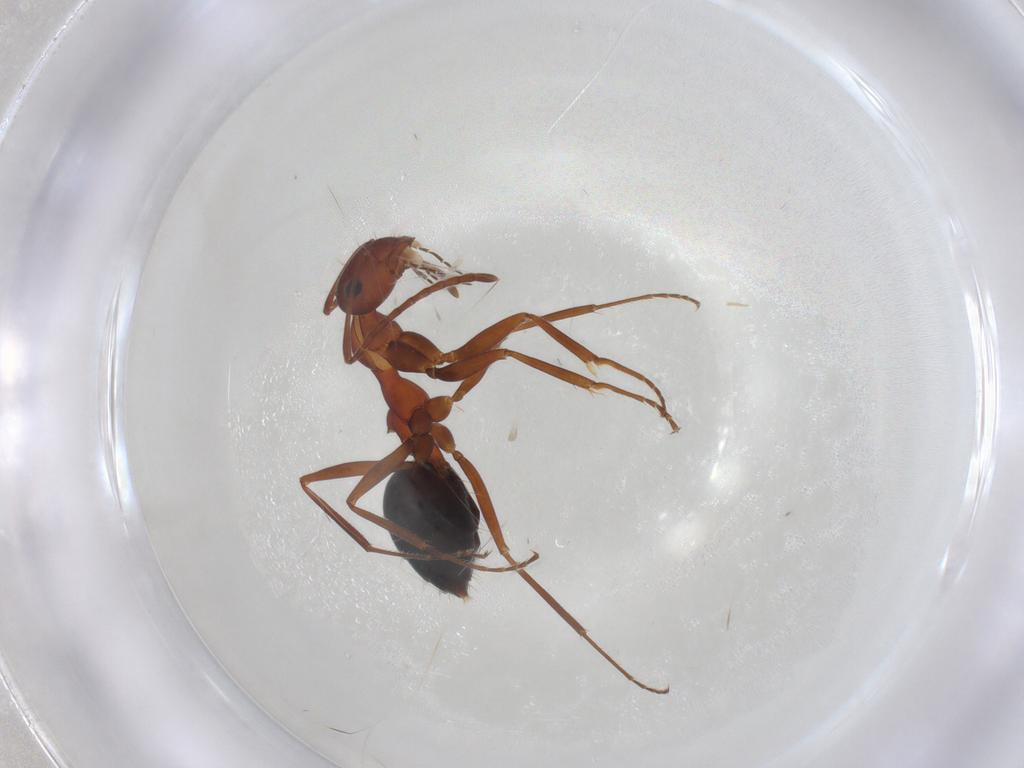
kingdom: Animalia
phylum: Arthropoda
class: Insecta
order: Hymenoptera
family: Formicidae
